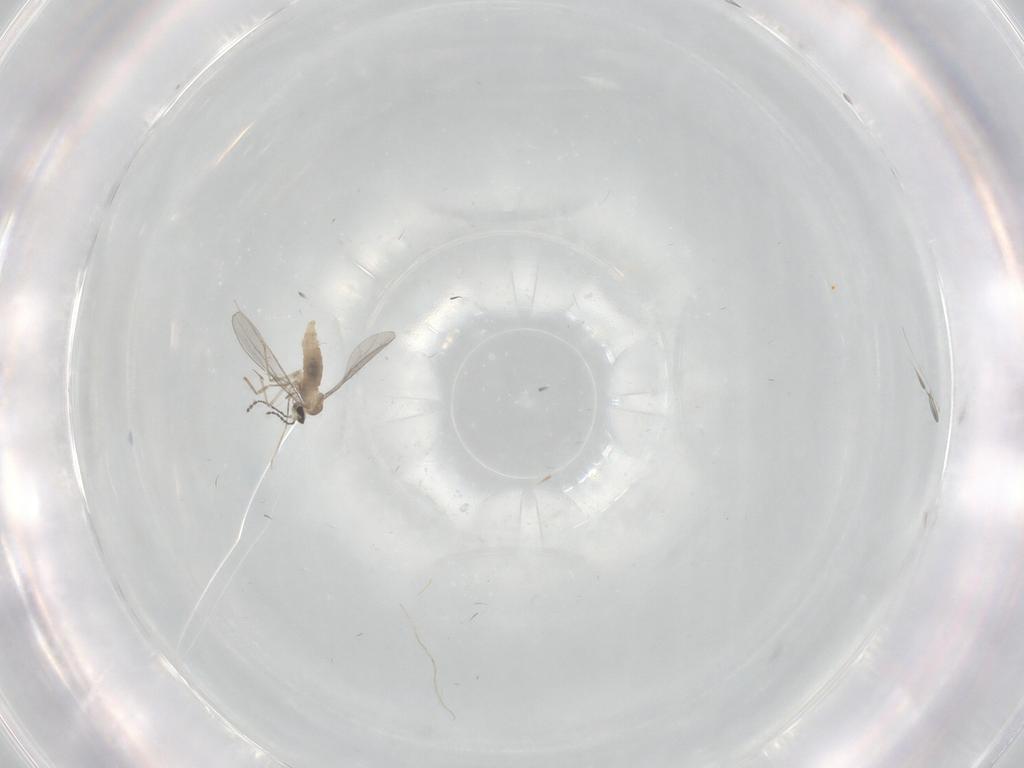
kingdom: Animalia
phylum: Arthropoda
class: Insecta
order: Diptera
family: Cecidomyiidae
